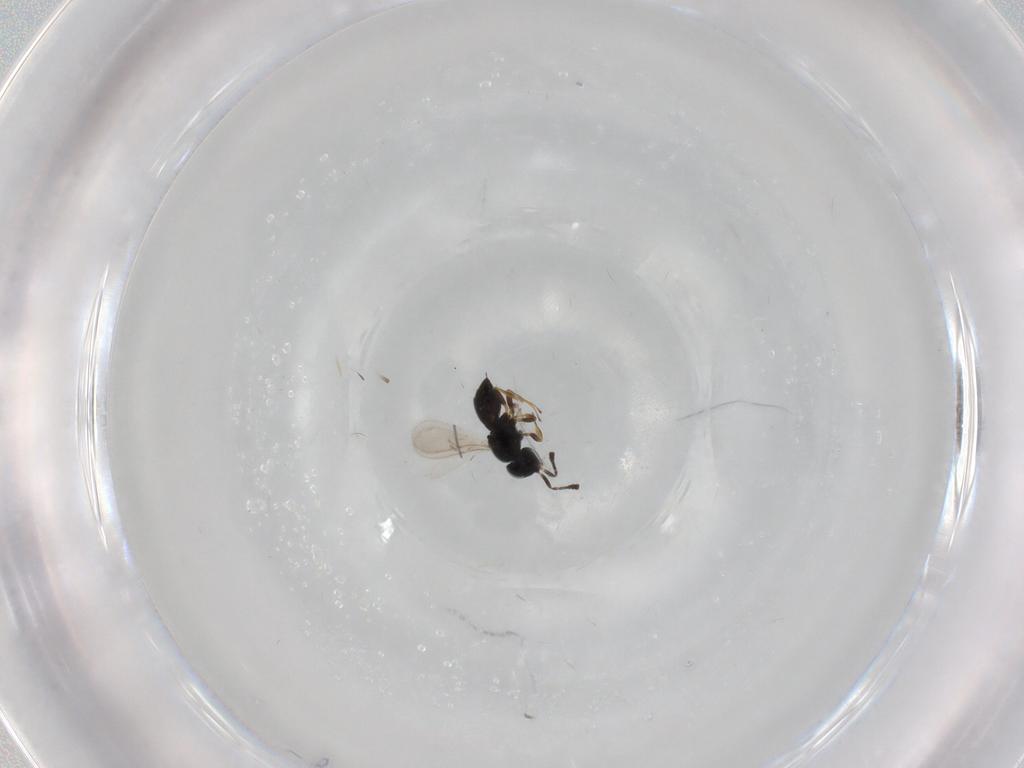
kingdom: Animalia
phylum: Arthropoda
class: Insecta
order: Hymenoptera
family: Scelionidae
